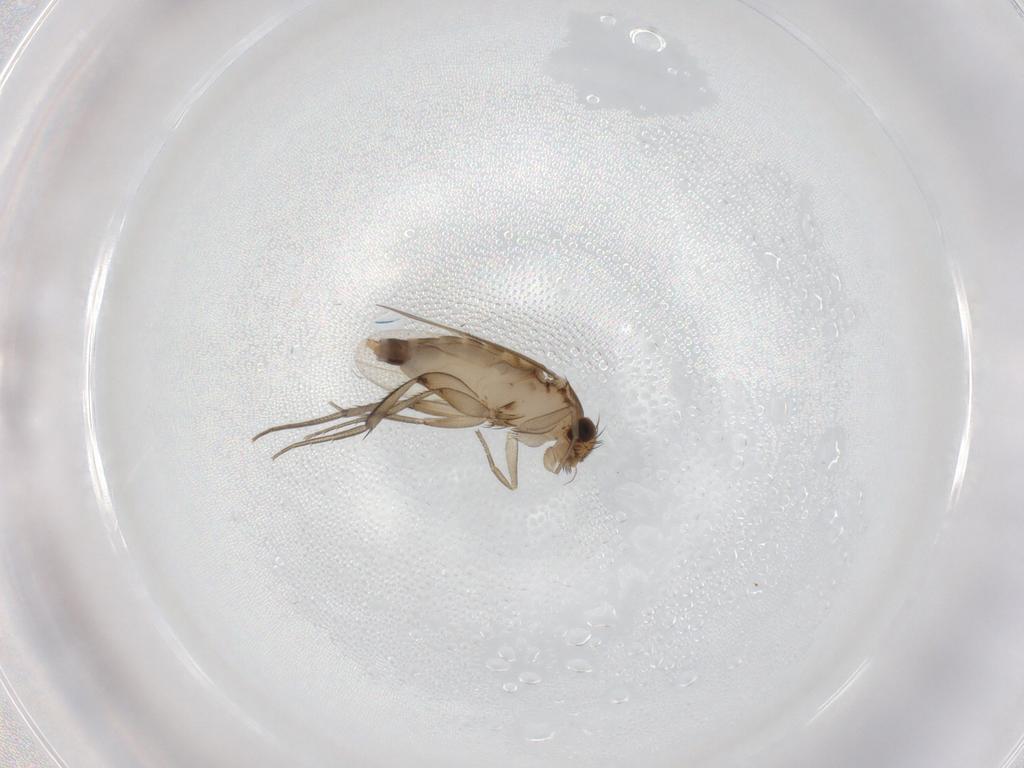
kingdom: Animalia
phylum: Arthropoda
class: Insecta
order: Diptera
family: Phoridae
